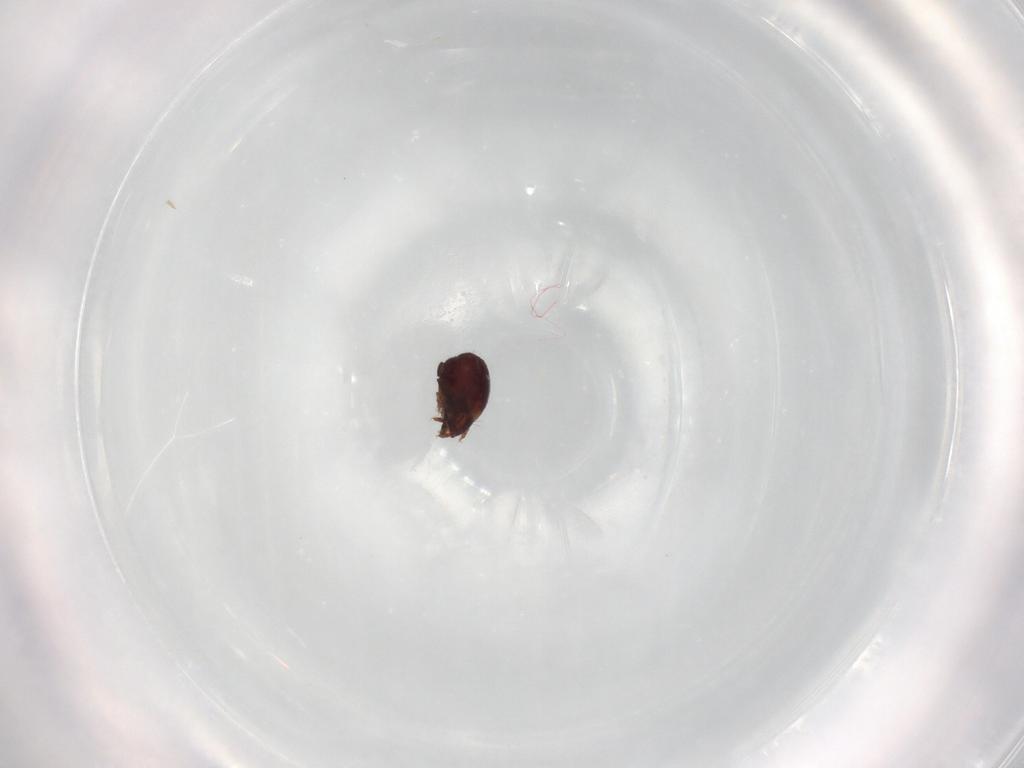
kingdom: Animalia
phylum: Arthropoda
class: Arachnida
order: Sarcoptiformes
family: Humerobatidae
